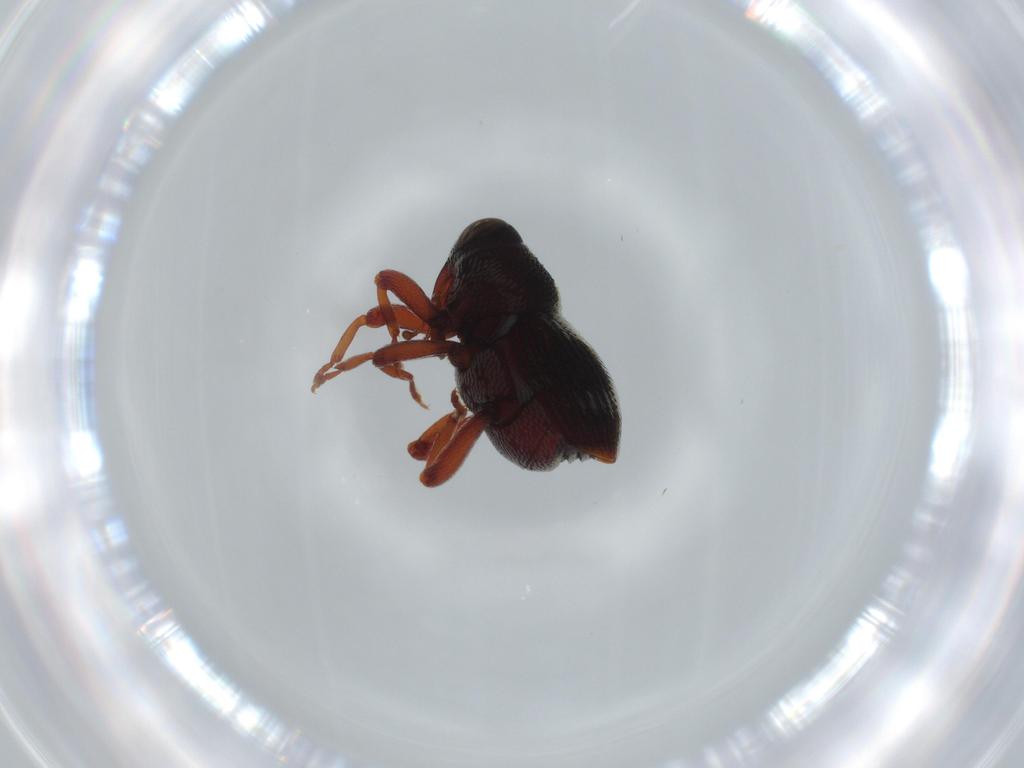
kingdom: Animalia
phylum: Arthropoda
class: Insecta
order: Coleoptera
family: Curculionidae
